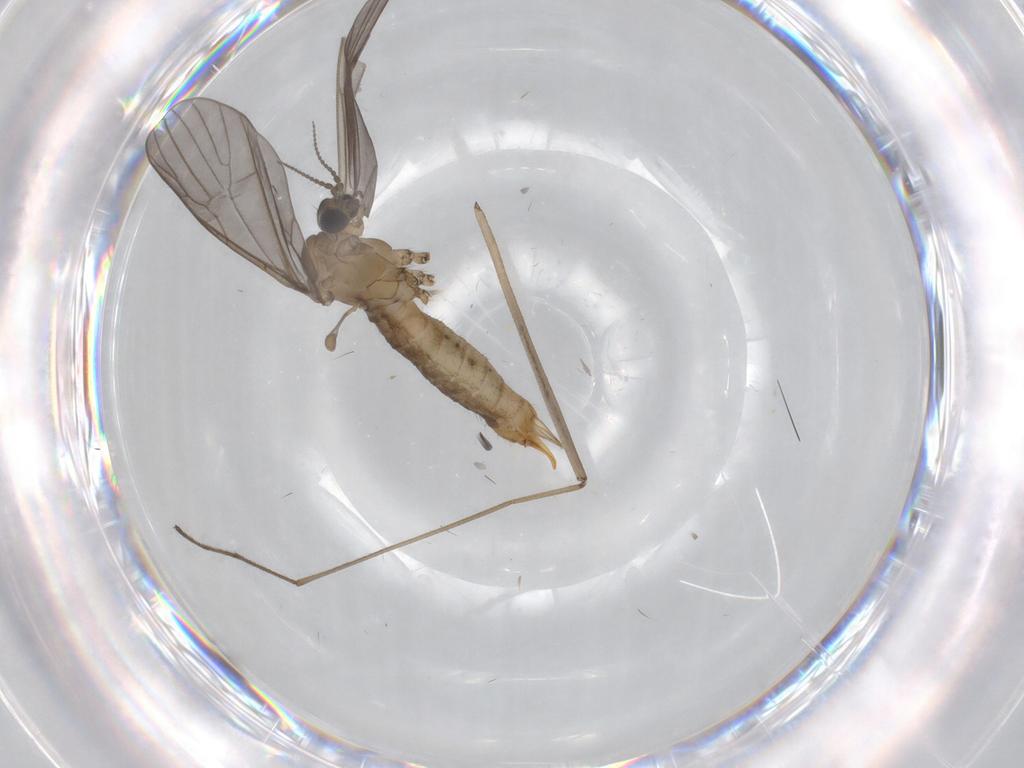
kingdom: Animalia
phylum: Arthropoda
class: Insecta
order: Diptera
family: Limoniidae
